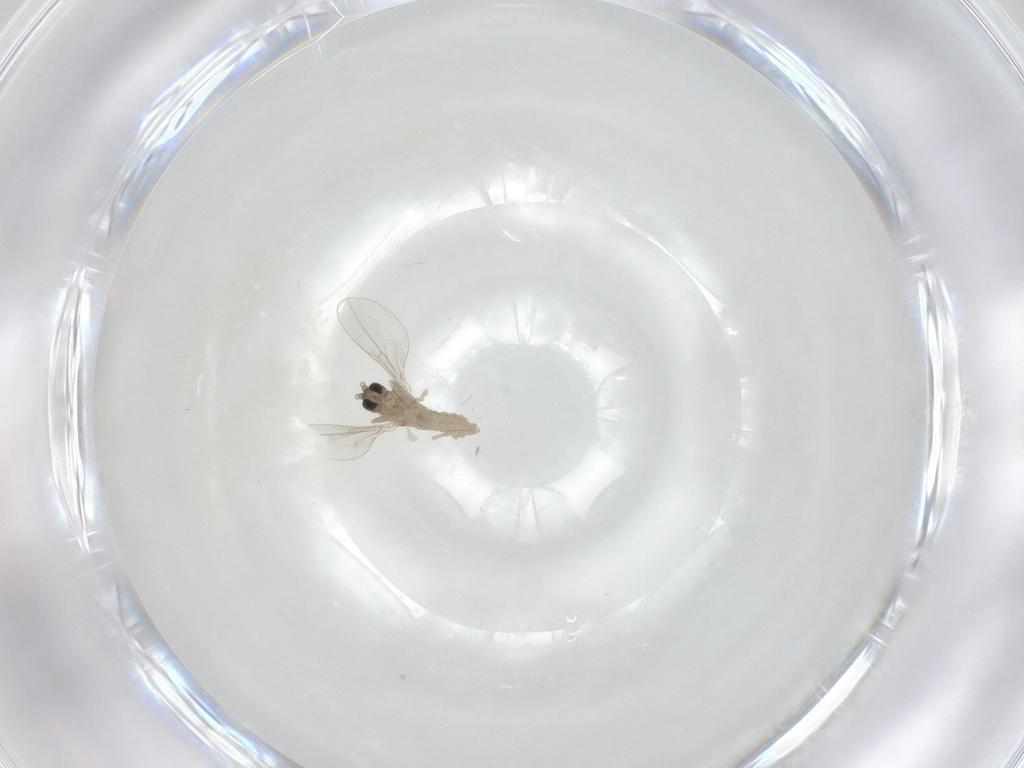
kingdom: Animalia
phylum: Arthropoda
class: Insecta
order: Diptera
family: Cecidomyiidae
